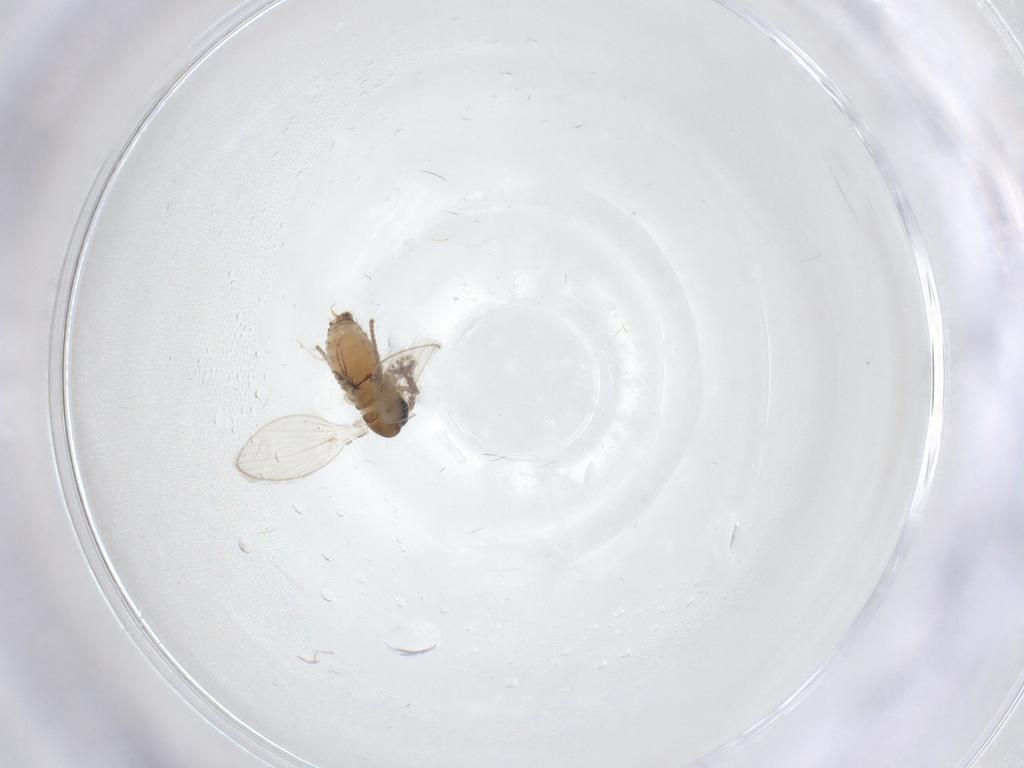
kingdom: Animalia
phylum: Arthropoda
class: Insecta
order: Diptera
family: Psychodidae
